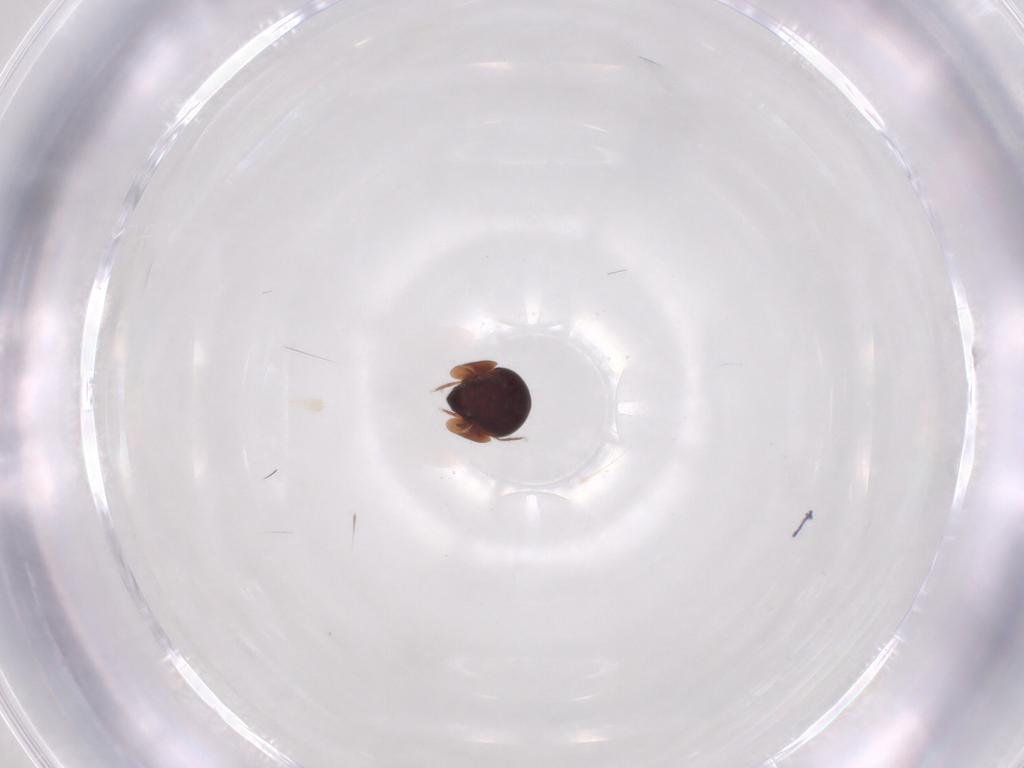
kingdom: Animalia
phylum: Arthropoda
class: Arachnida
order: Sarcoptiformes
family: Galumnidae
